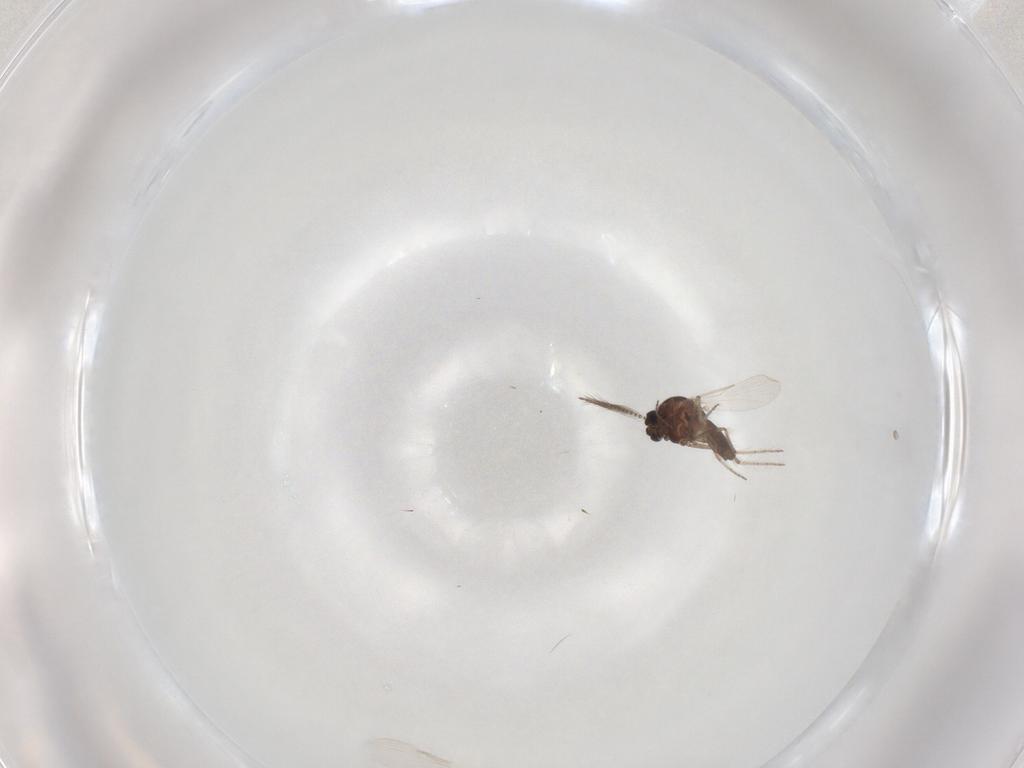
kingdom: Animalia
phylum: Arthropoda
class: Insecta
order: Diptera
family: Ceratopogonidae
